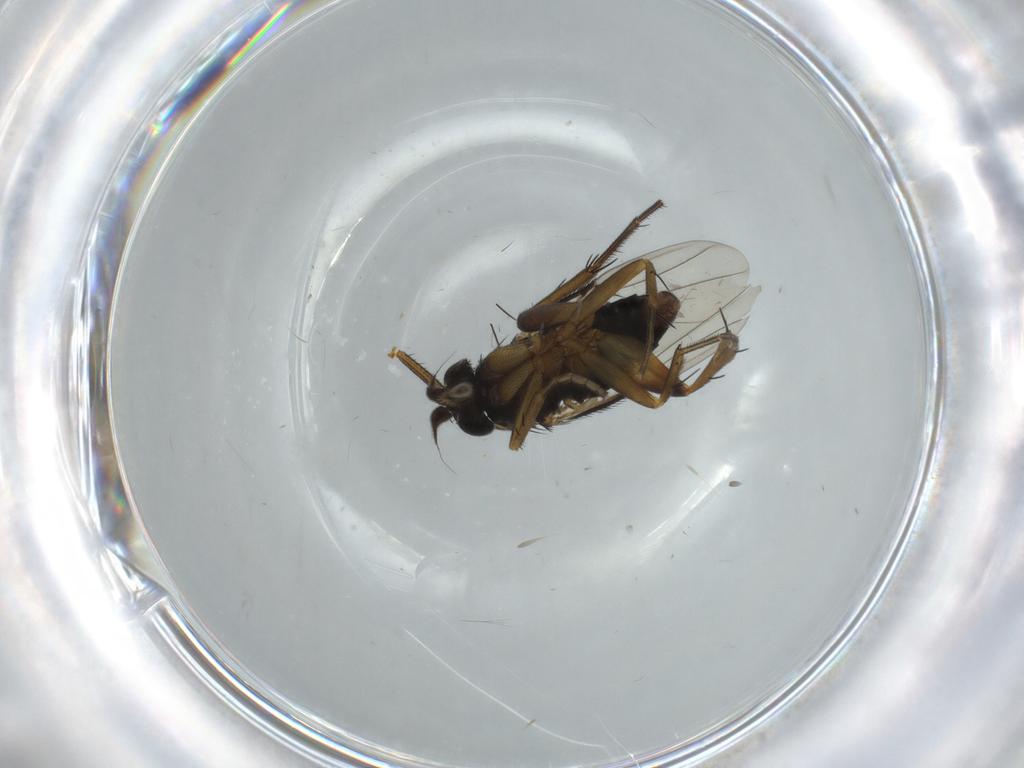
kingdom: Animalia
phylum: Arthropoda
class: Insecta
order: Diptera
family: Cecidomyiidae
